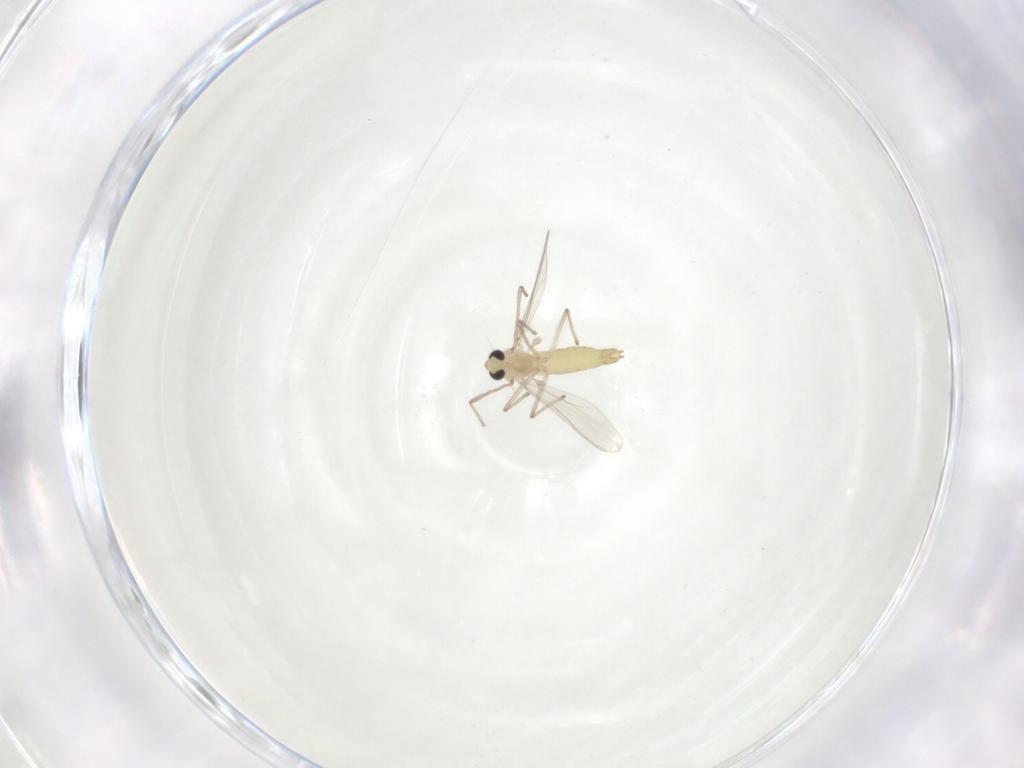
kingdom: Animalia
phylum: Arthropoda
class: Insecta
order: Diptera
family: Chironomidae
